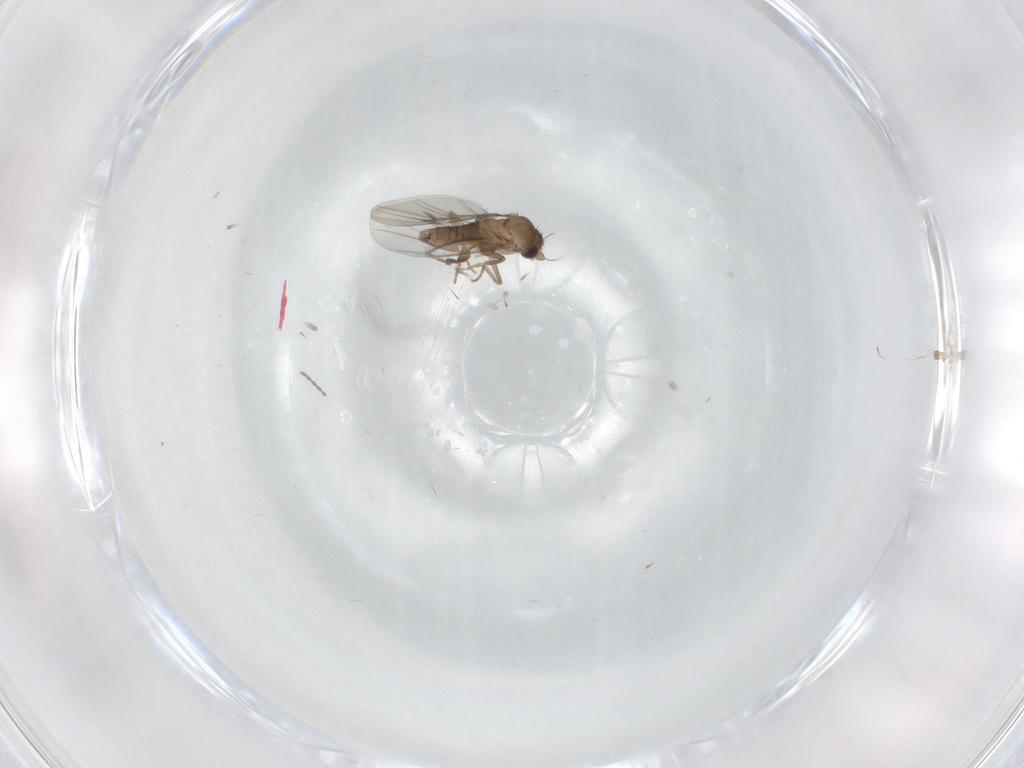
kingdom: Animalia
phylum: Arthropoda
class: Insecta
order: Diptera
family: Cecidomyiidae
